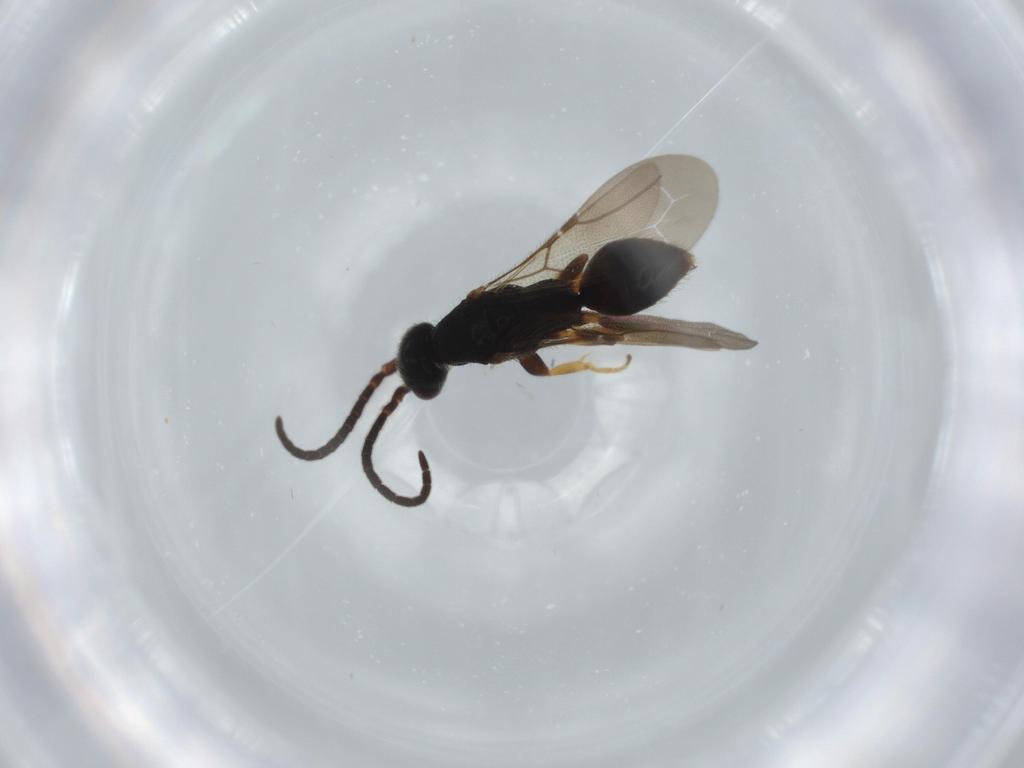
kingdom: Animalia
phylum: Arthropoda
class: Insecta
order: Hymenoptera
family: Bethylidae
